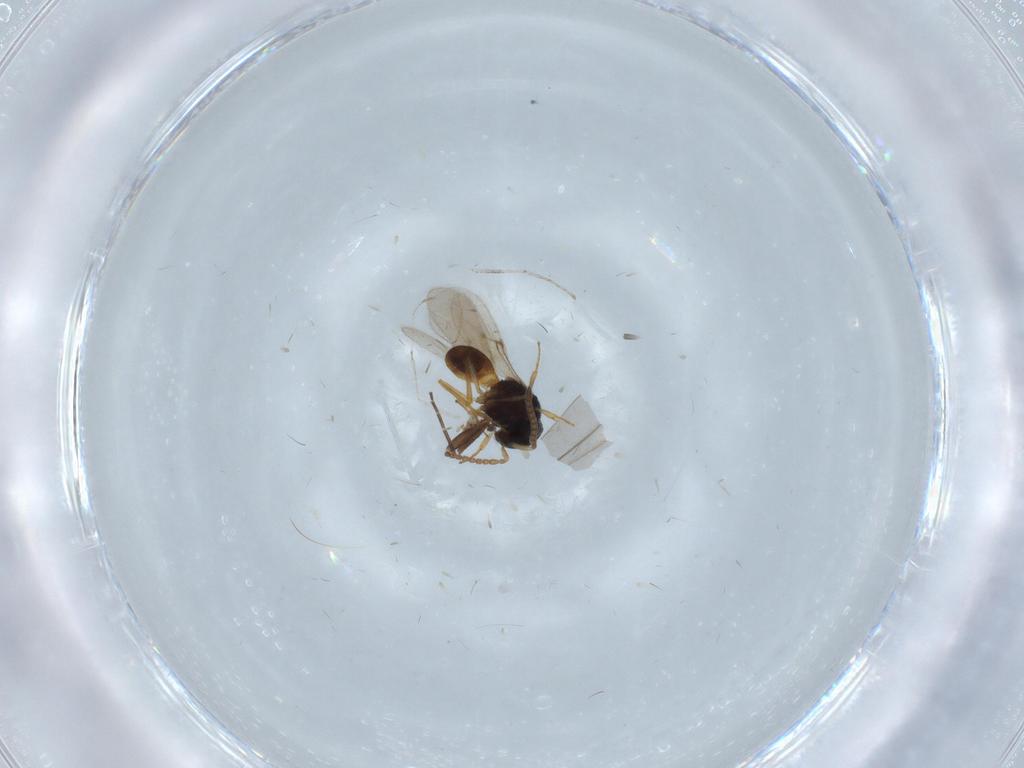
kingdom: Animalia
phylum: Arthropoda
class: Insecta
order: Hymenoptera
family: Scelionidae
